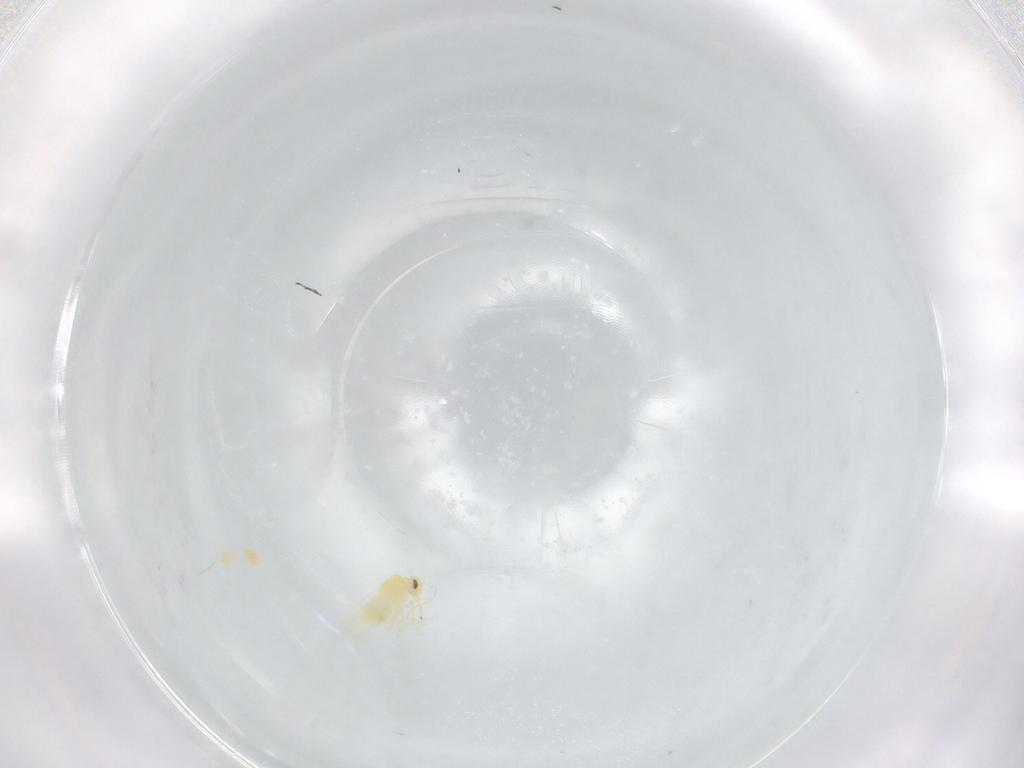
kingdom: Animalia
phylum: Arthropoda
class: Insecta
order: Hemiptera
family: Aleyrodidae
